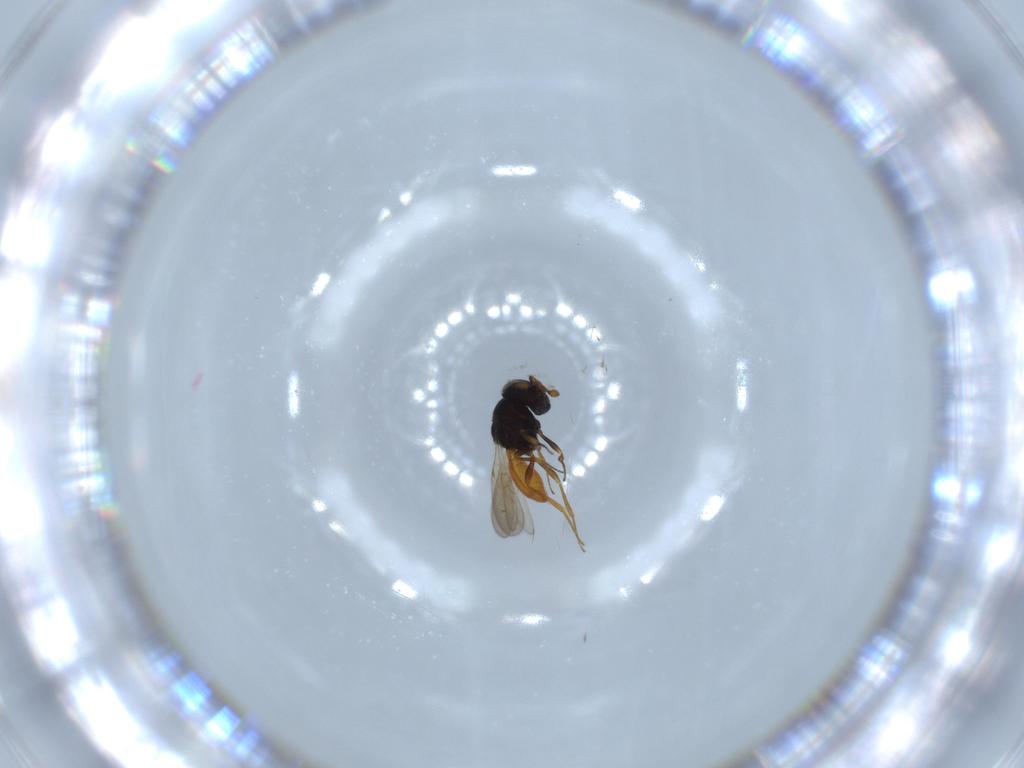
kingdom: Animalia
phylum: Arthropoda
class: Insecta
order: Hymenoptera
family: Scelionidae
